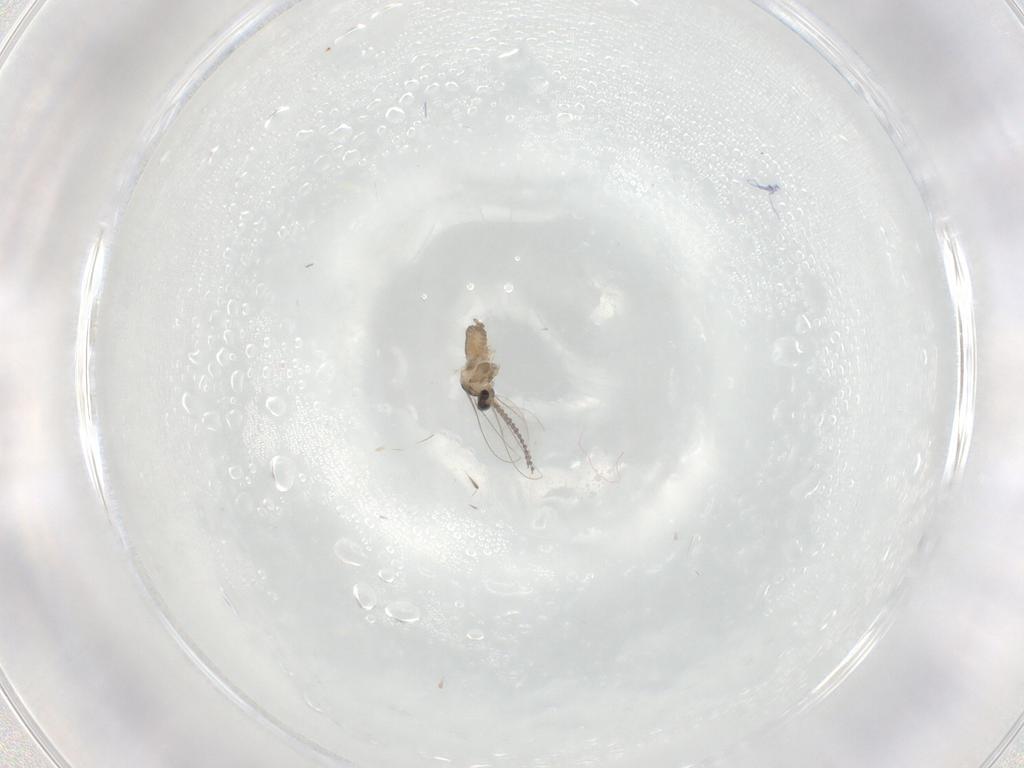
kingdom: Animalia
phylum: Arthropoda
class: Insecta
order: Diptera
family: Cecidomyiidae
